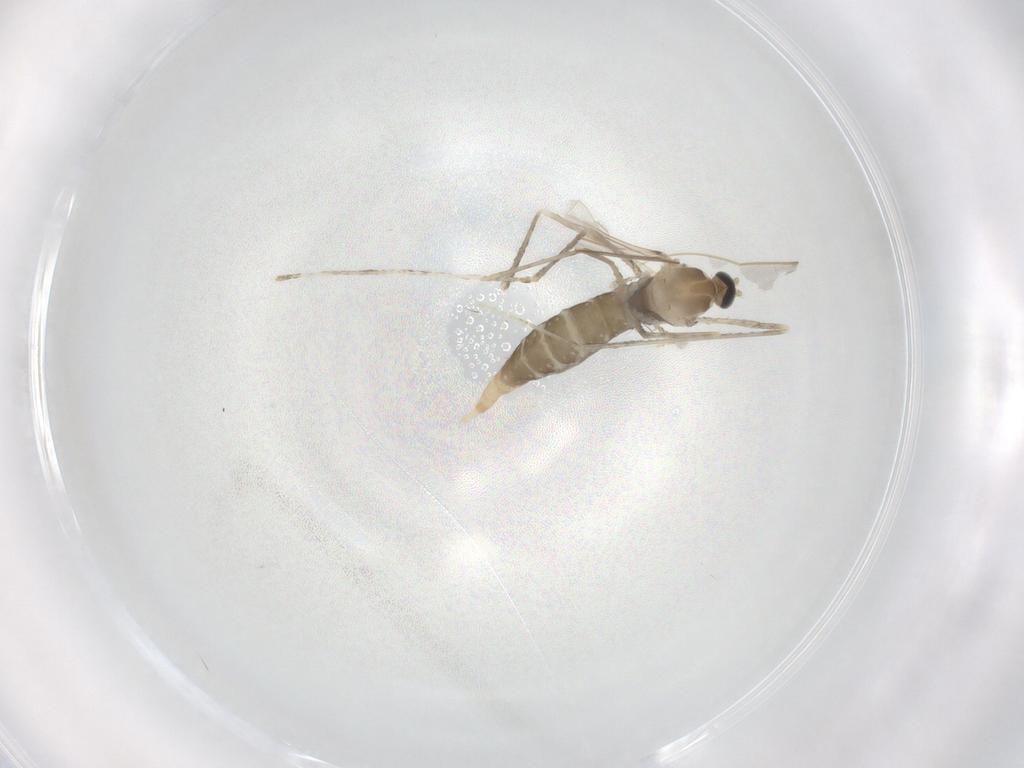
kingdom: Animalia
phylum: Arthropoda
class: Insecta
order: Diptera
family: Cecidomyiidae
